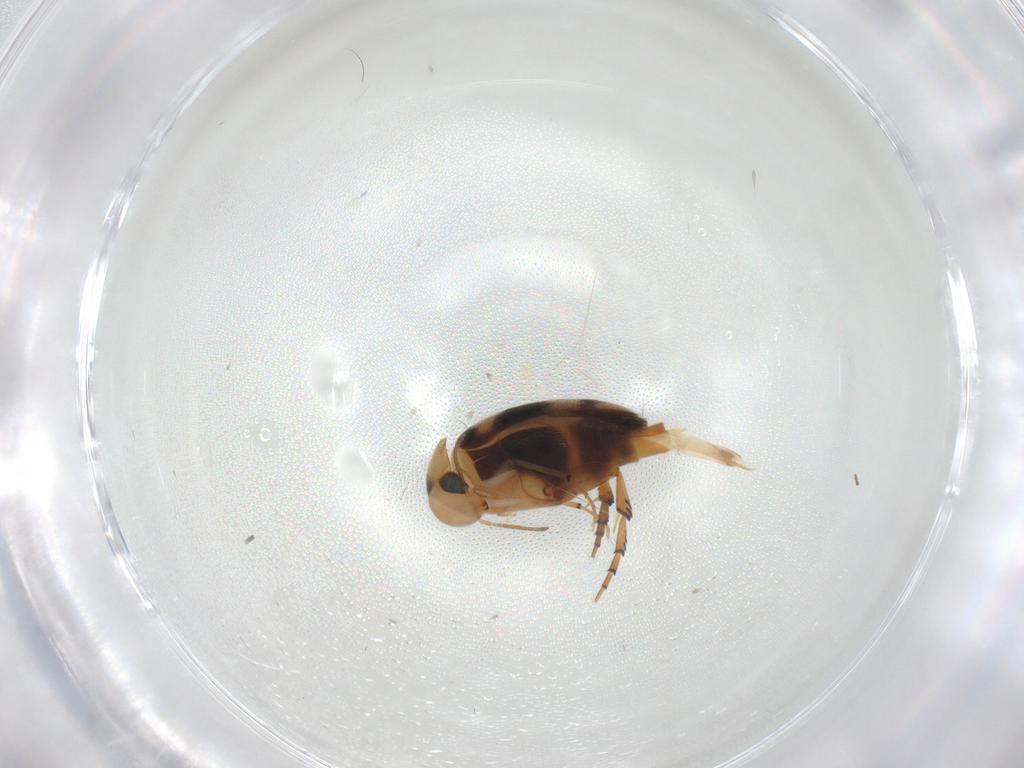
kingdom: Animalia
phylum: Arthropoda
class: Insecta
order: Coleoptera
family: Mordellidae
